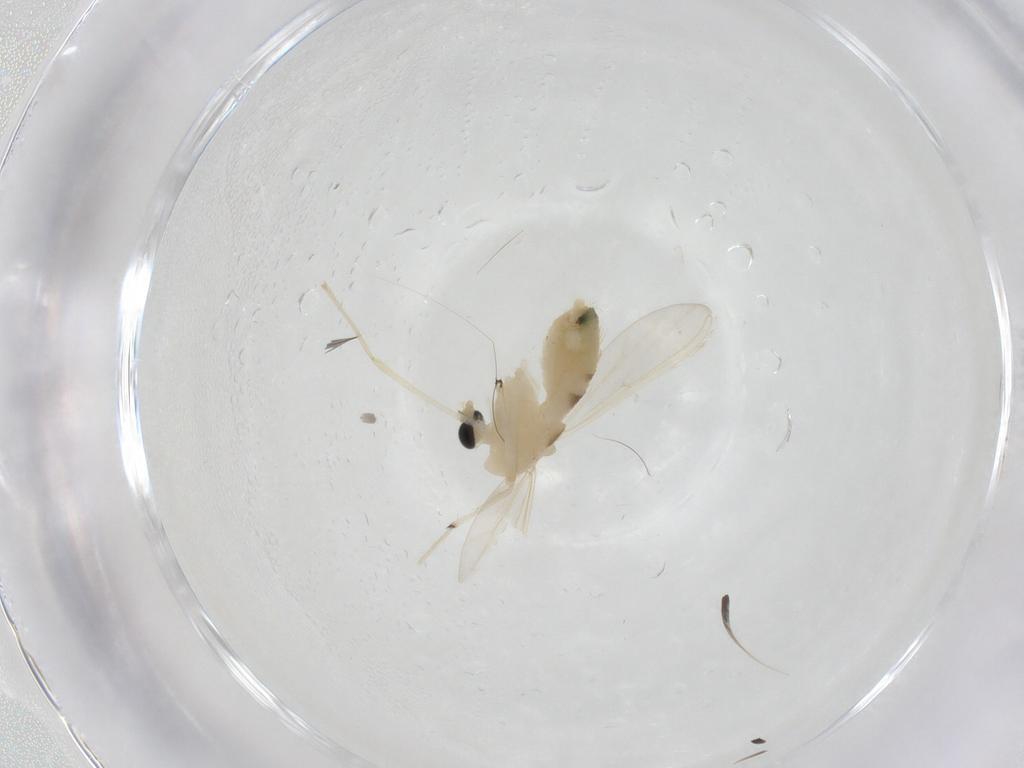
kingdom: Animalia
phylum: Arthropoda
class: Insecta
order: Diptera
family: Chironomidae
